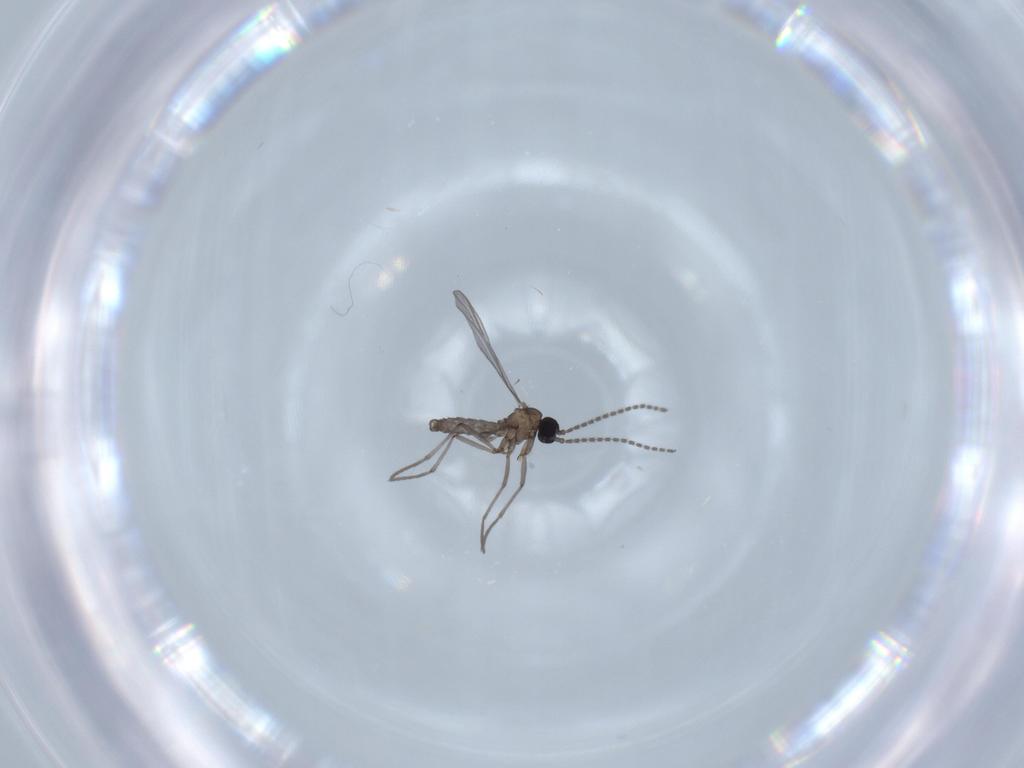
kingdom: Animalia
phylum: Arthropoda
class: Insecta
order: Diptera
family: Sciaridae
